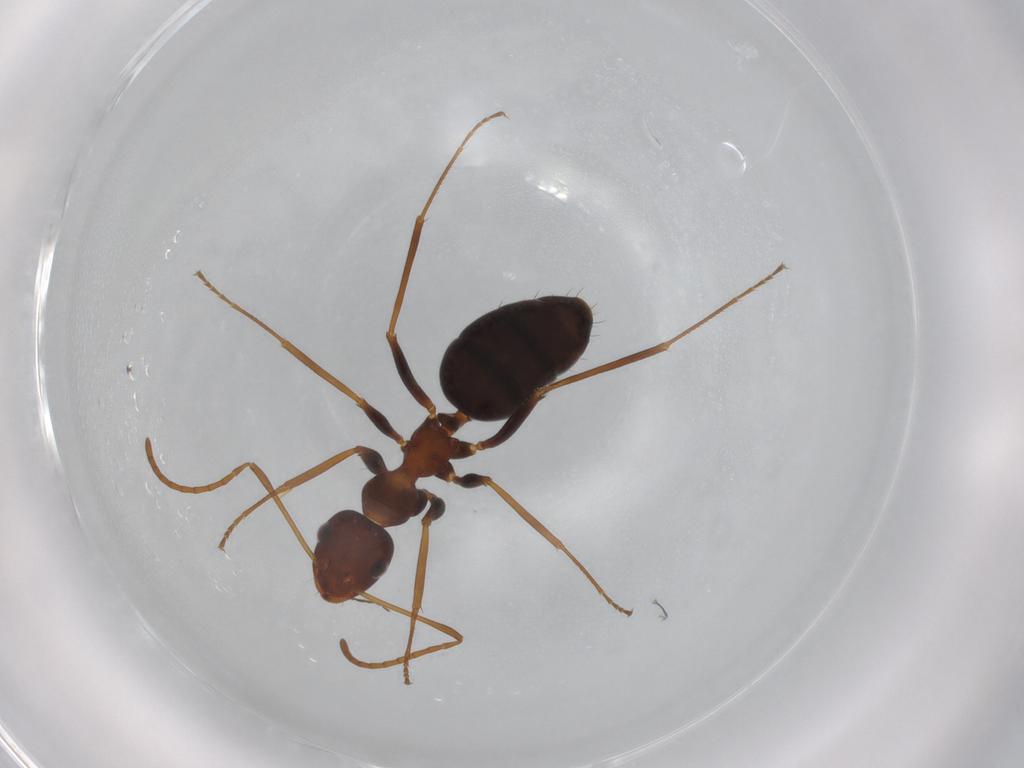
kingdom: Animalia
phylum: Arthropoda
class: Insecta
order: Hymenoptera
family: Formicidae
